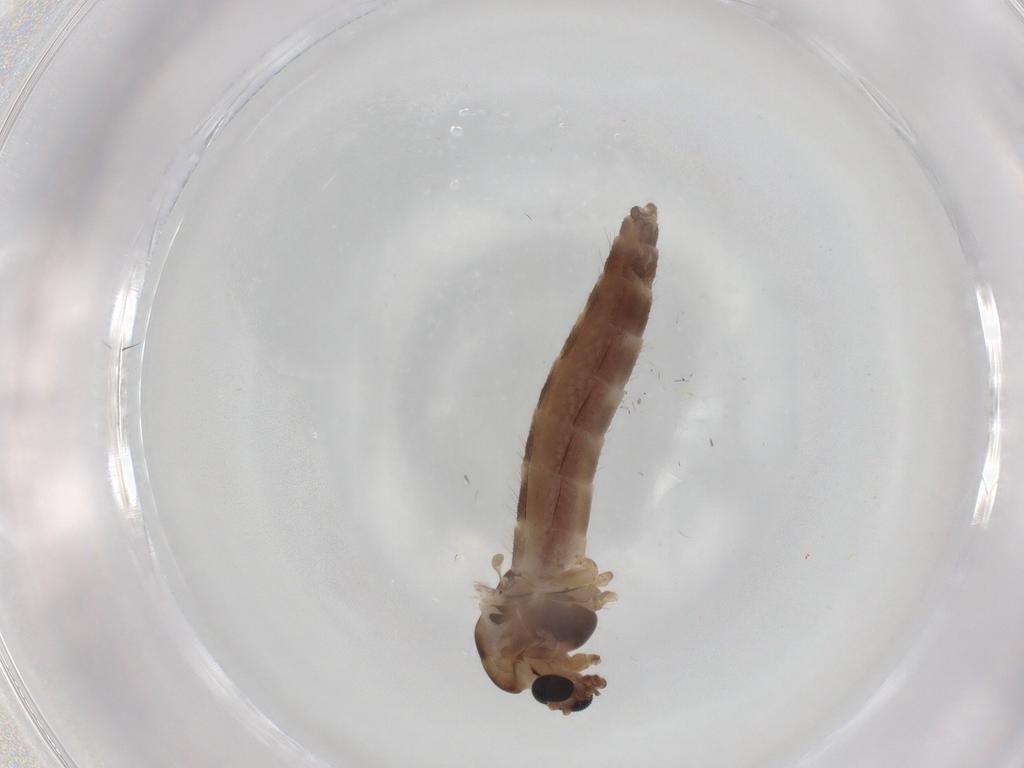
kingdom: Animalia
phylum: Arthropoda
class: Insecta
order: Diptera
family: Chironomidae
